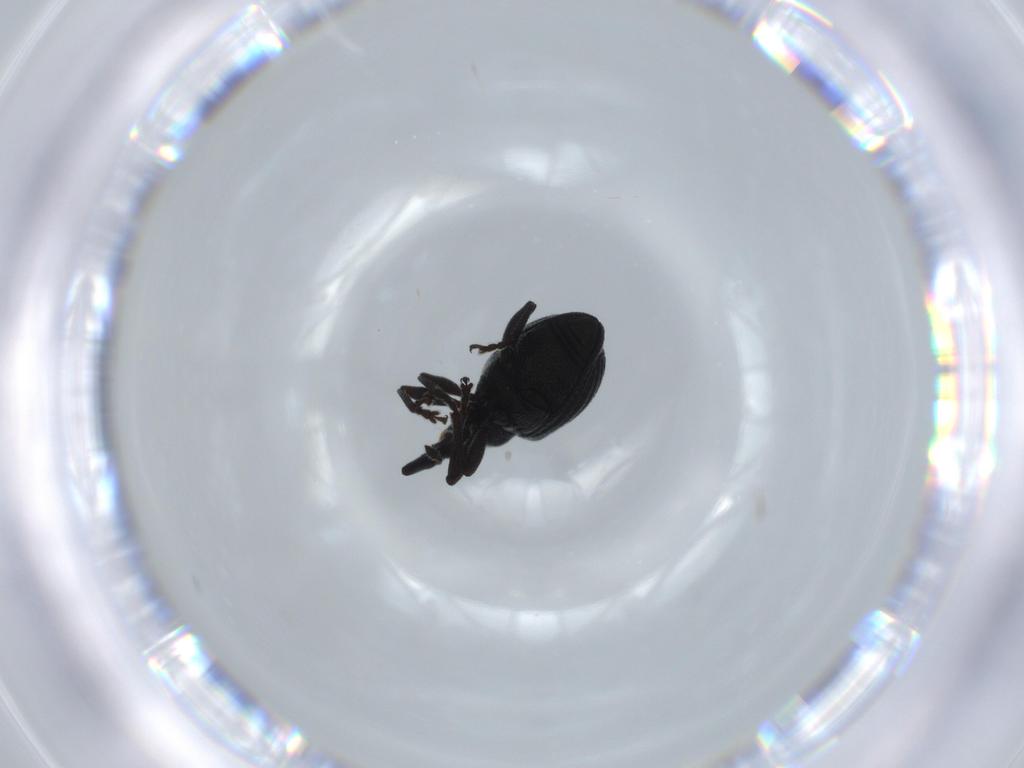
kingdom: Animalia
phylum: Arthropoda
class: Insecta
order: Coleoptera
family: Brentidae
